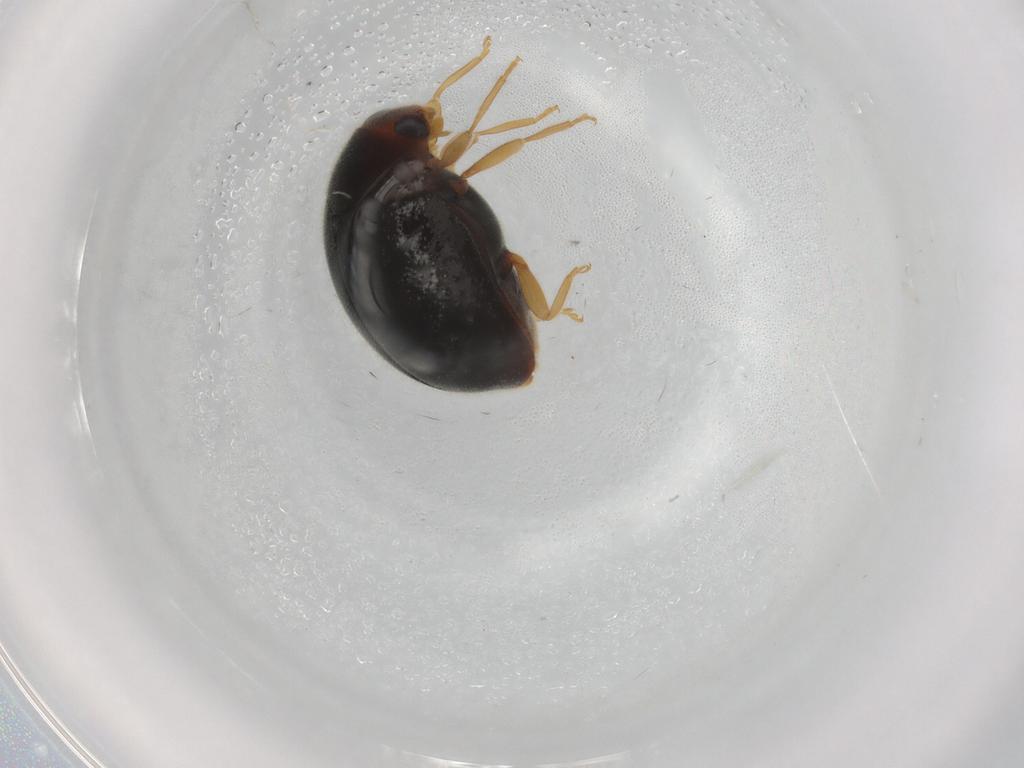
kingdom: Animalia
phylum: Arthropoda
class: Insecta
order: Coleoptera
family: Coccinellidae
